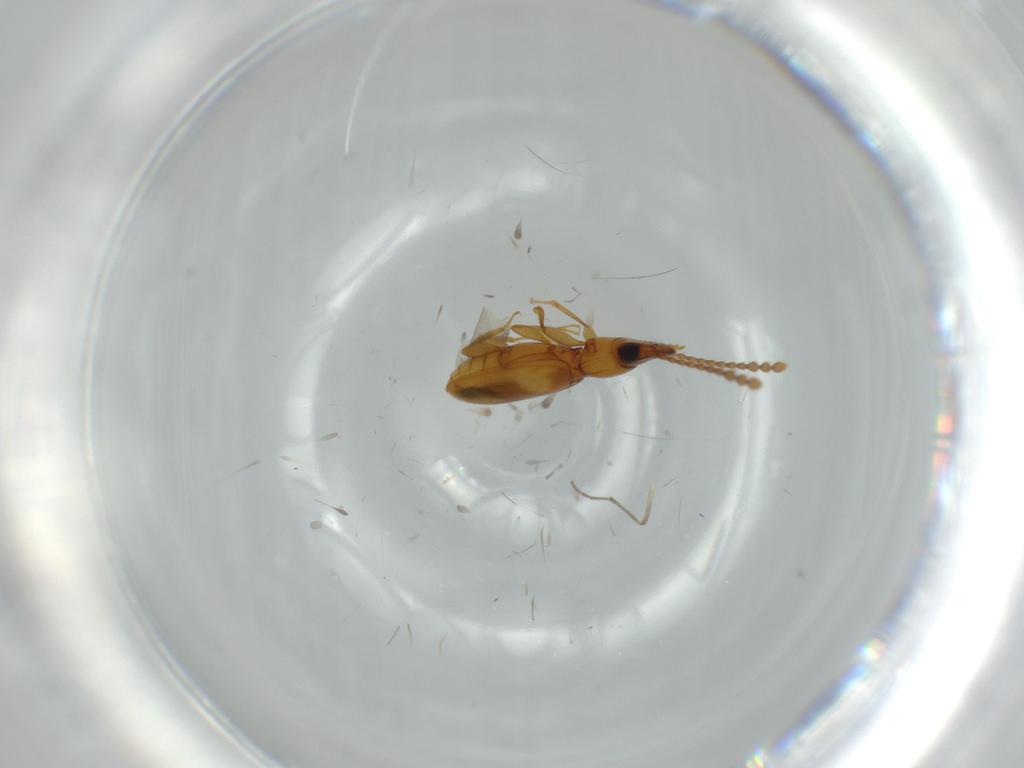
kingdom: Animalia
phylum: Arthropoda
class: Insecta
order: Coleoptera
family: Laemophloeidae
